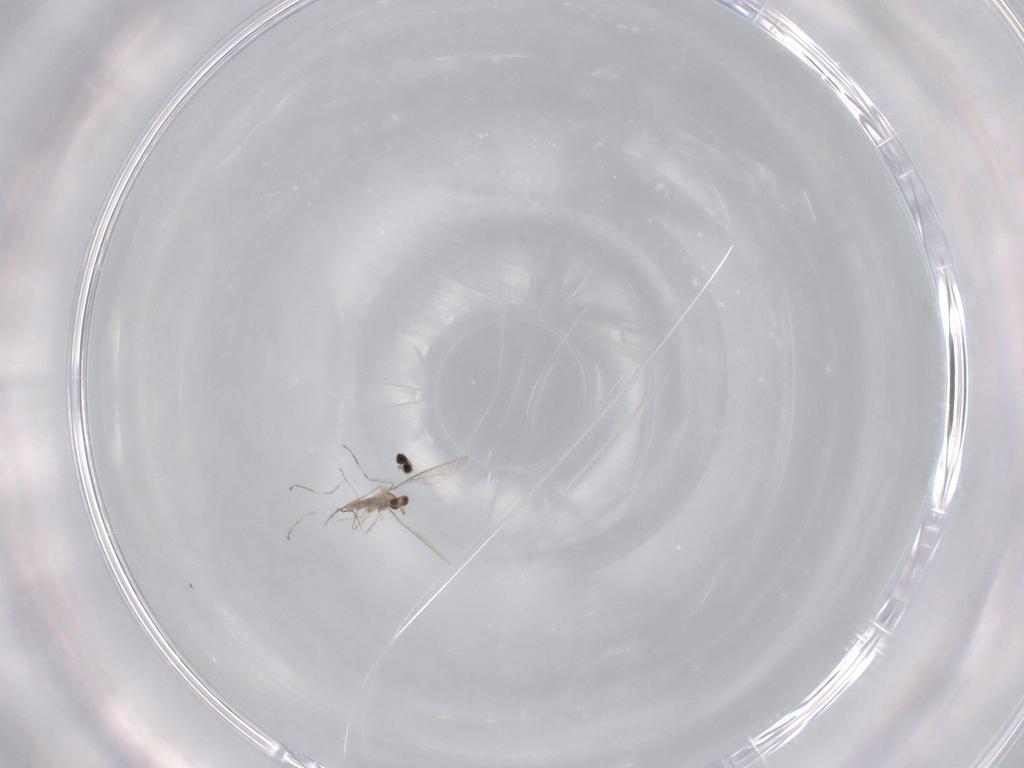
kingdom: Animalia
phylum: Arthropoda
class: Insecta
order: Diptera
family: Cecidomyiidae
